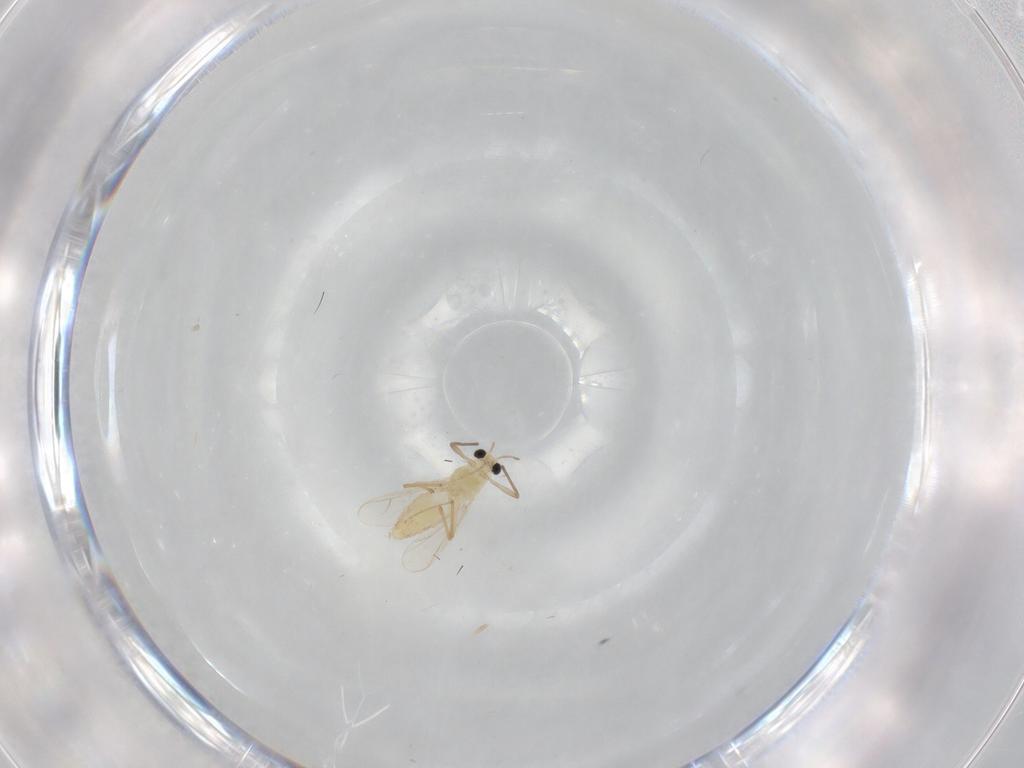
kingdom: Animalia
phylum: Arthropoda
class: Insecta
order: Diptera
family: Chironomidae
